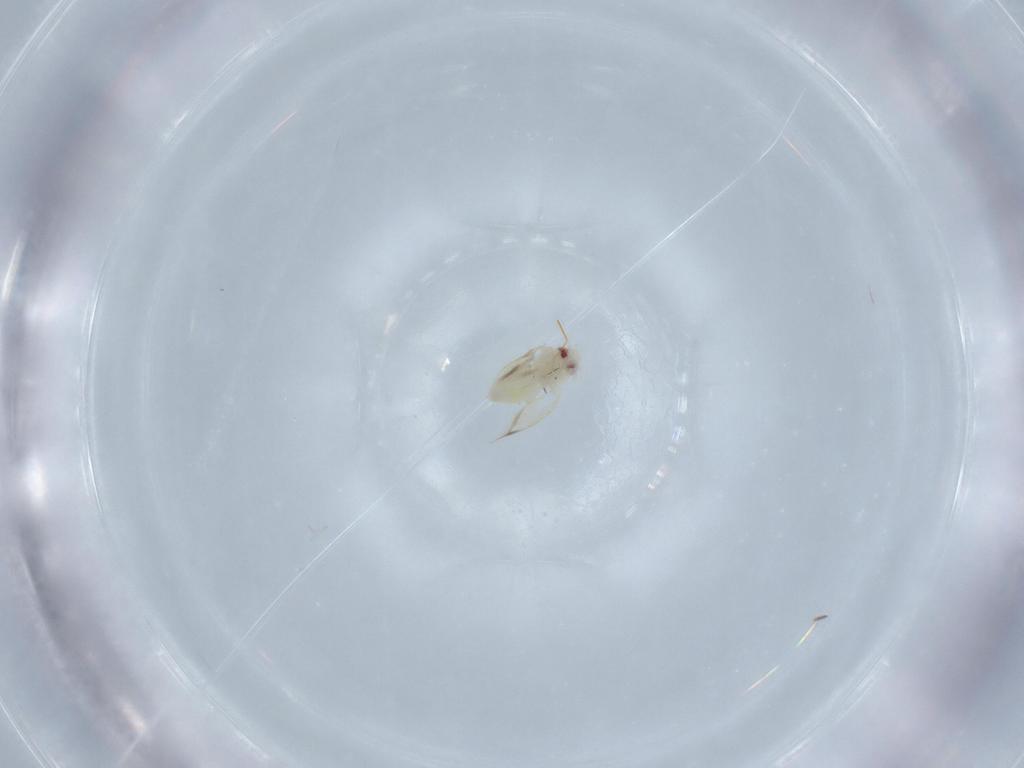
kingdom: Animalia
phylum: Arthropoda
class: Insecta
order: Hemiptera
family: Aleyrodidae
